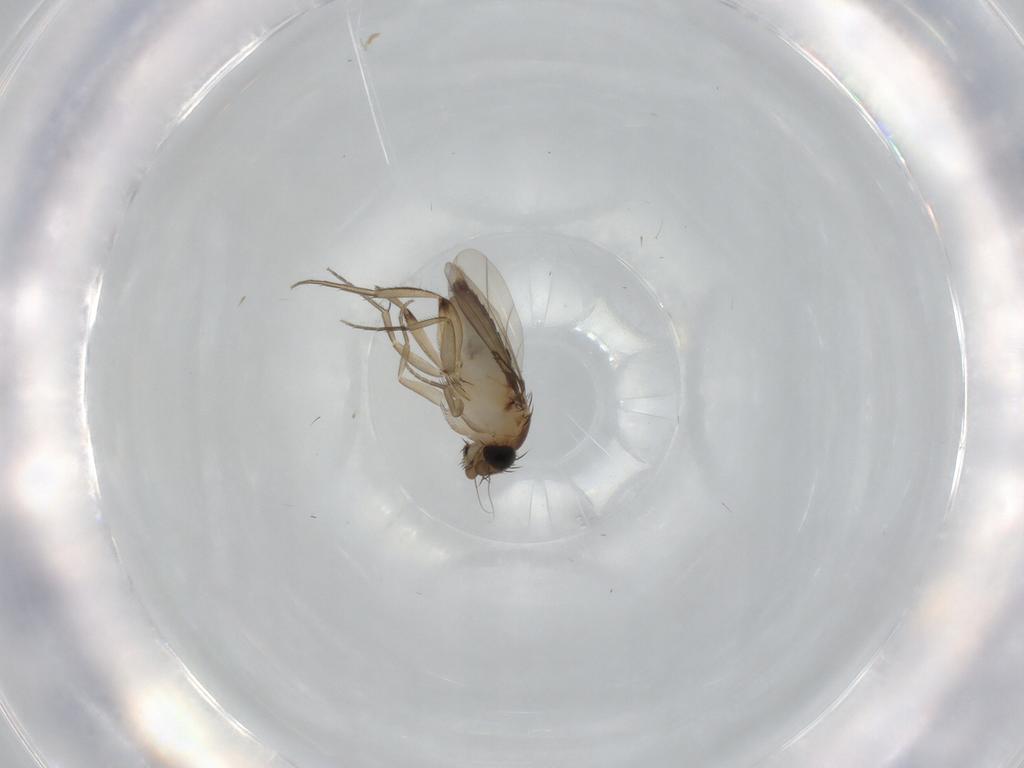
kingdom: Animalia
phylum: Arthropoda
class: Insecta
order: Diptera
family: Phoridae
